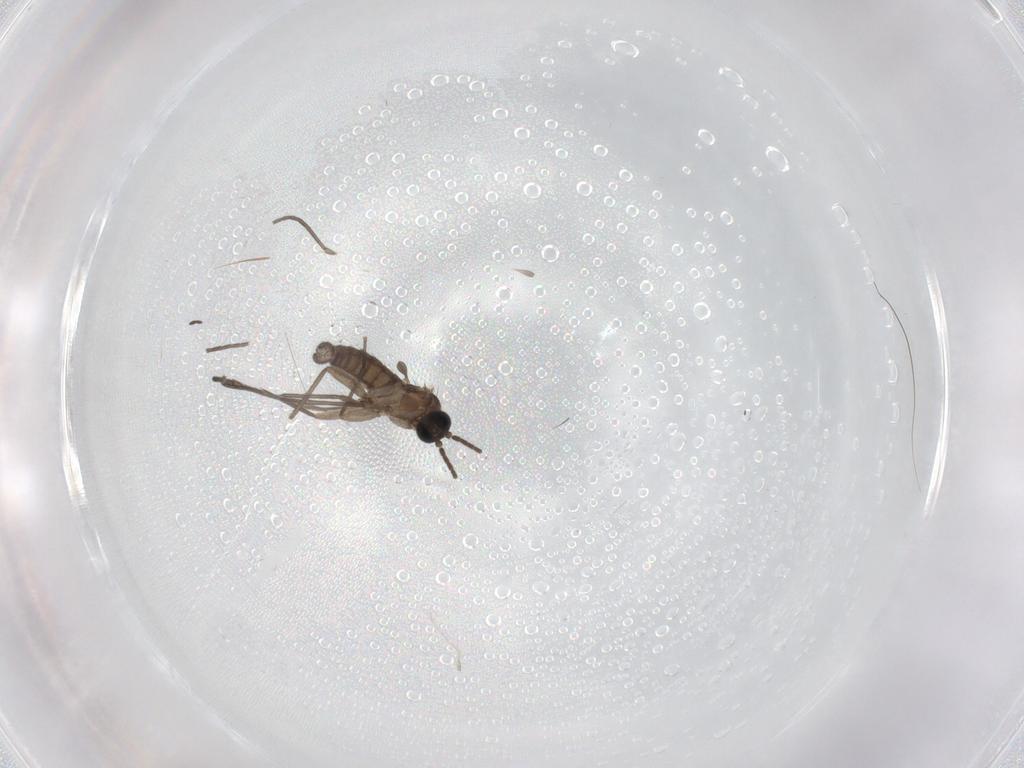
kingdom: Animalia
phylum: Arthropoda
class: Insecta
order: Diptera
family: Sciaridae
